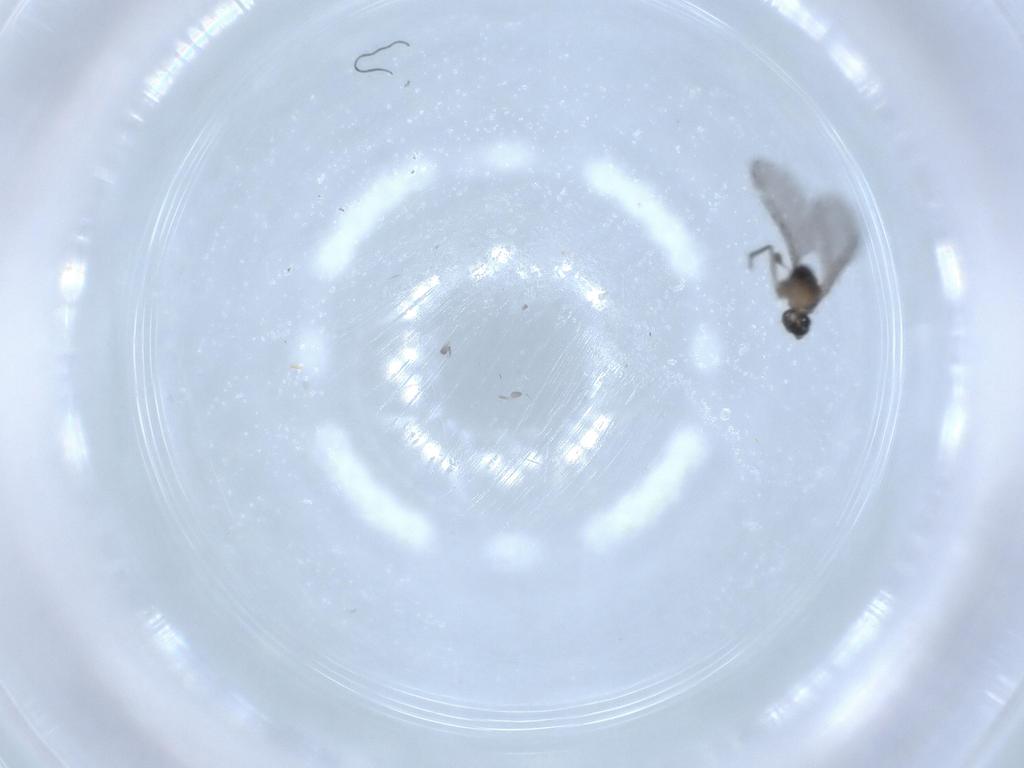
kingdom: Animalia
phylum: Arthropoda
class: Insecta
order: Diptera
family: Sciaridae
